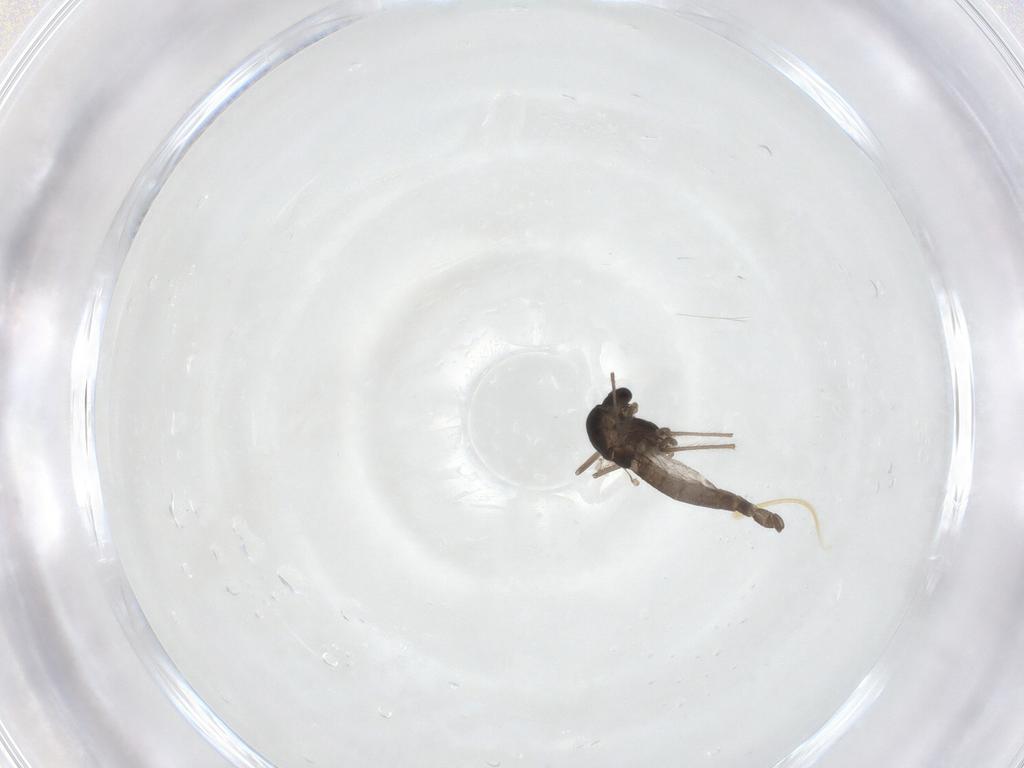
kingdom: Animalia
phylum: Arthropoda
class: Insecta
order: Diptera
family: Chironomidae
